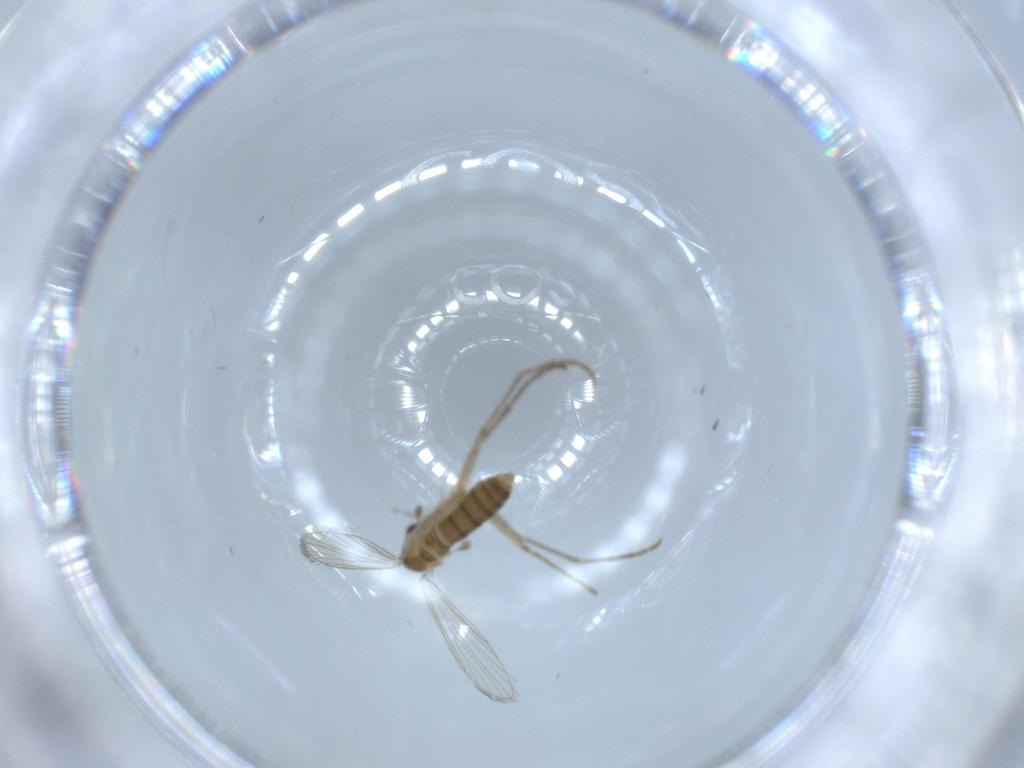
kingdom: Animalia
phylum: Arthropoda
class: Insecta
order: Diptera
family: Psychodidae
